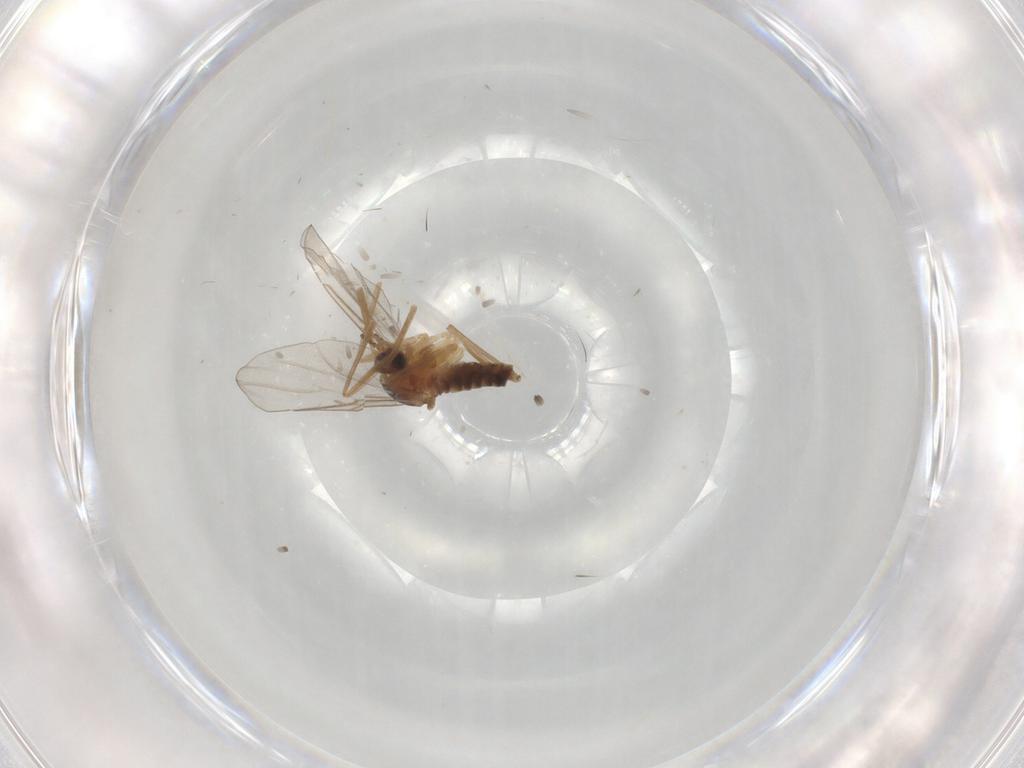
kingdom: Animalia
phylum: Arthropoda
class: Insecta
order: Diptera
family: Cecidomyiidae
